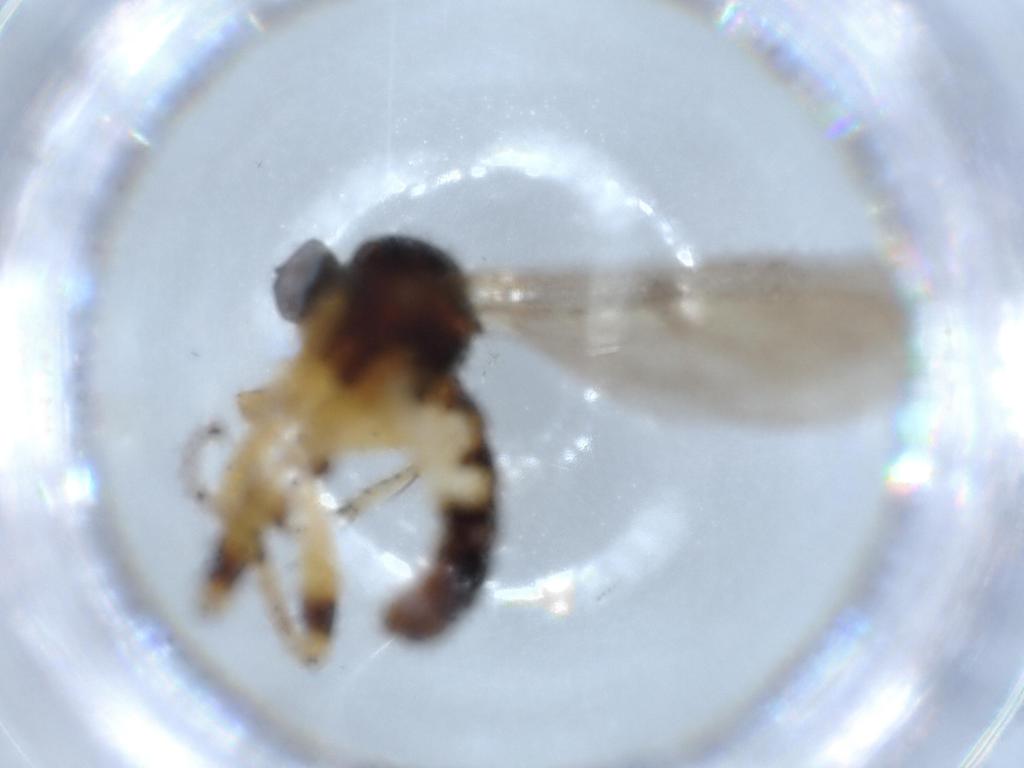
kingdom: Animalia
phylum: Arthropoda
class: Insecta
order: Diptera
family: Hybotidae
